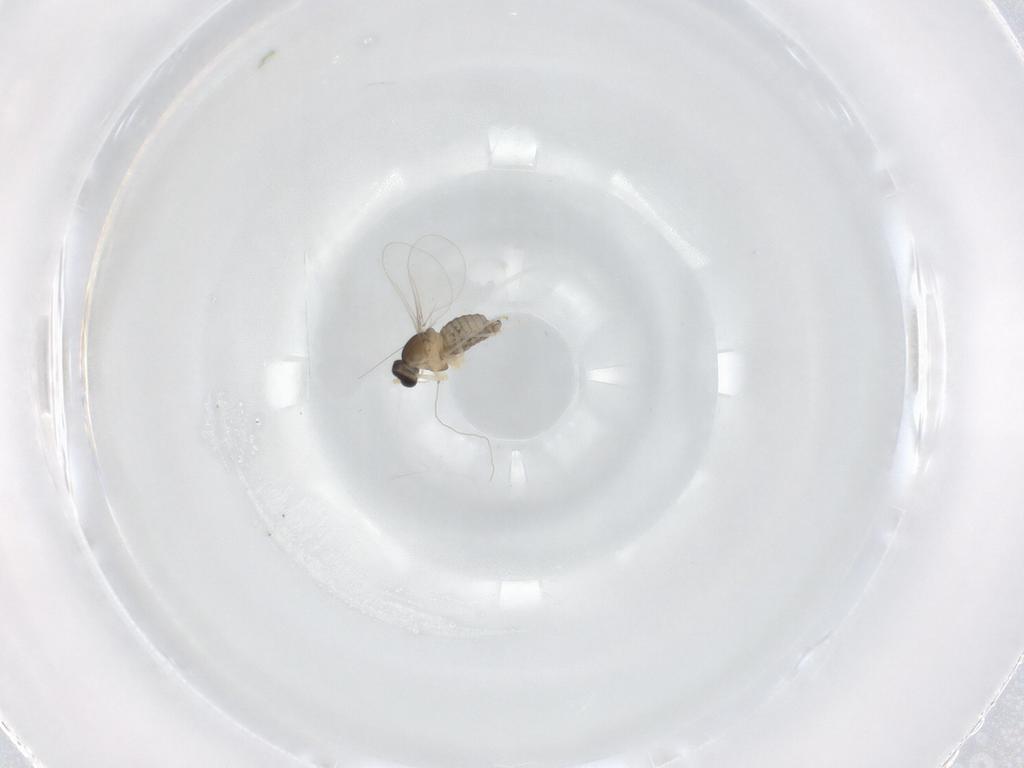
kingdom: Animalia
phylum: Arthropoda
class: Insecta
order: Diptera
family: Cecidomyiidae
